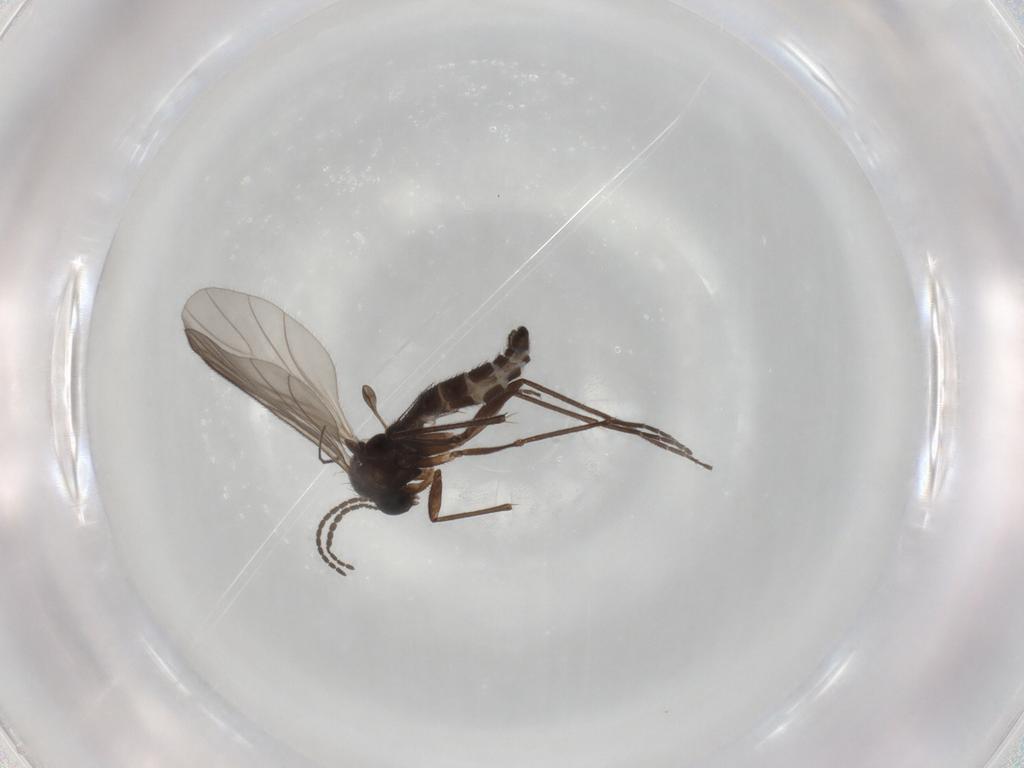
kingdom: Animalia
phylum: Arthropoda
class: Insecta
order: Diptera
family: Sciaridae
